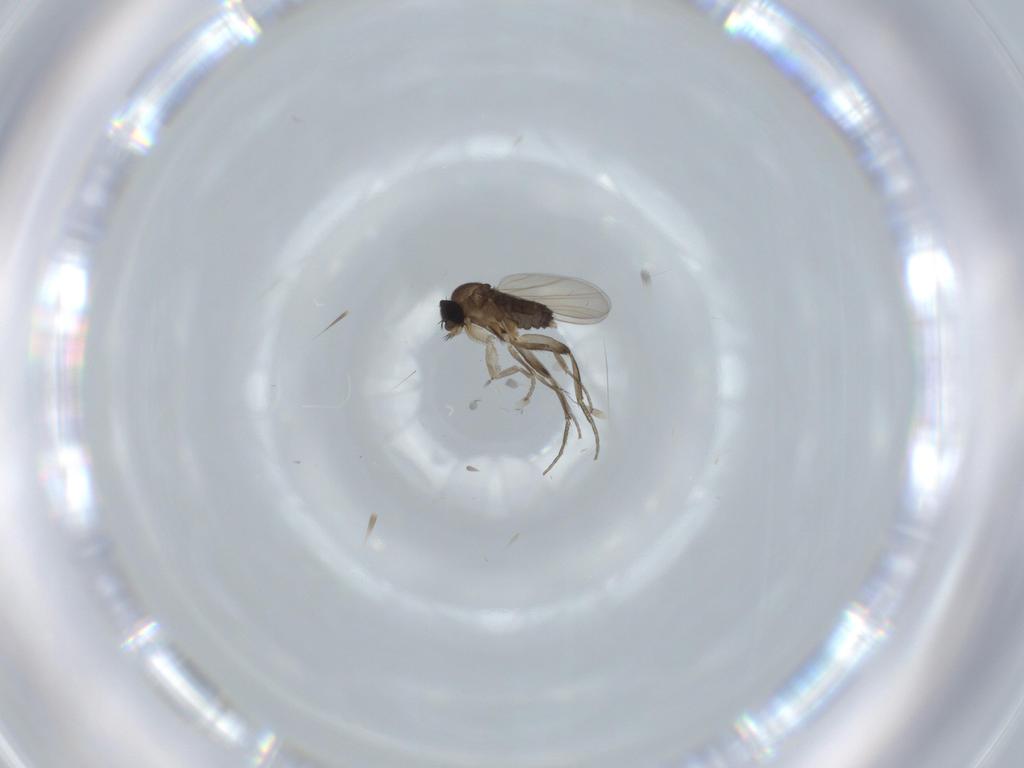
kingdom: Animalia
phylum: Arthropoda
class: Insecta
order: Diptera
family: Phoridae
